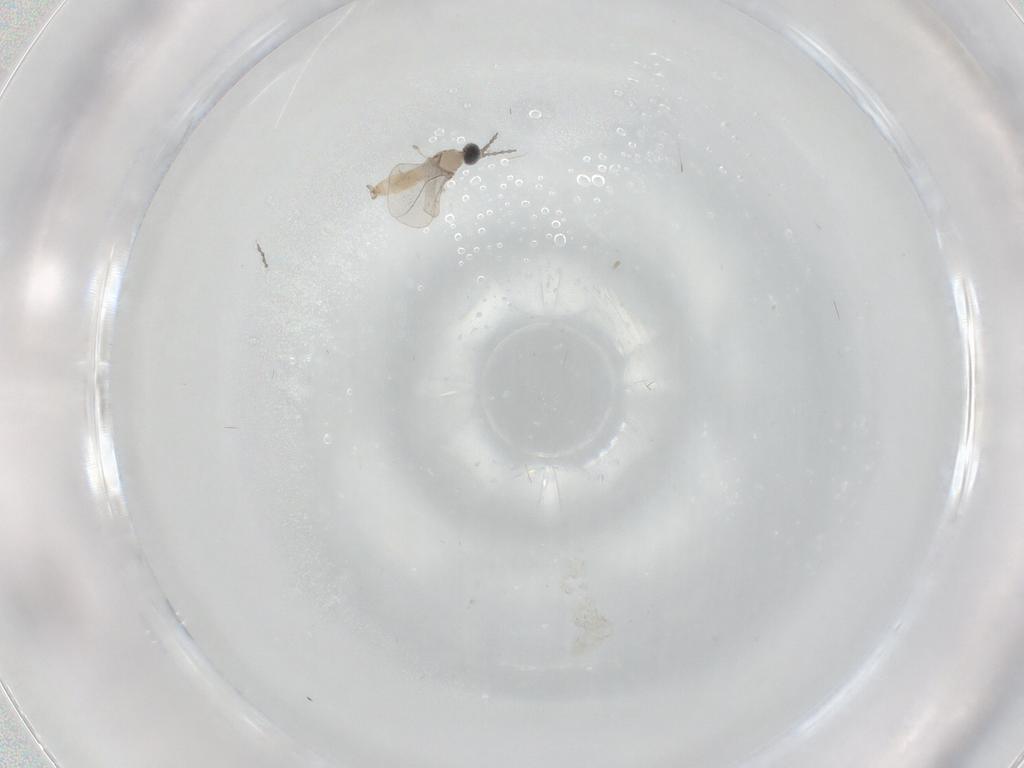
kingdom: Animalia
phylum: Arthropoda
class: Insecta
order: Diptera
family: Cecidomyiidae
